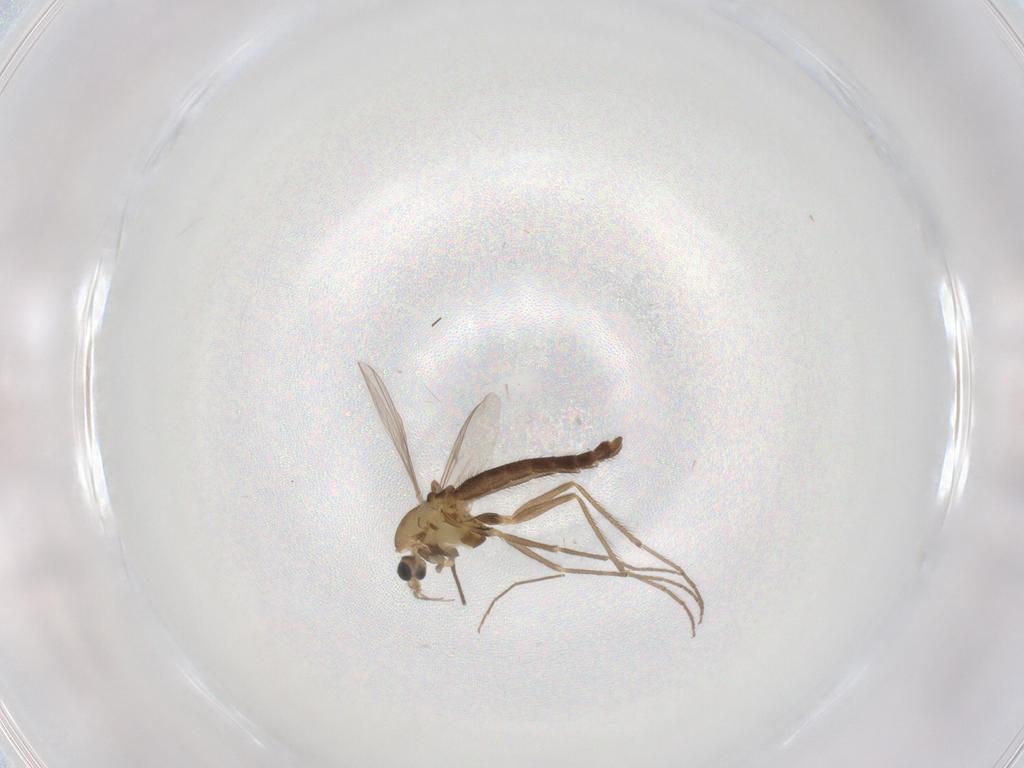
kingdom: Animalia
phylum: Arthropoda
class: Insecta
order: Diptera
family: Chironomidae
